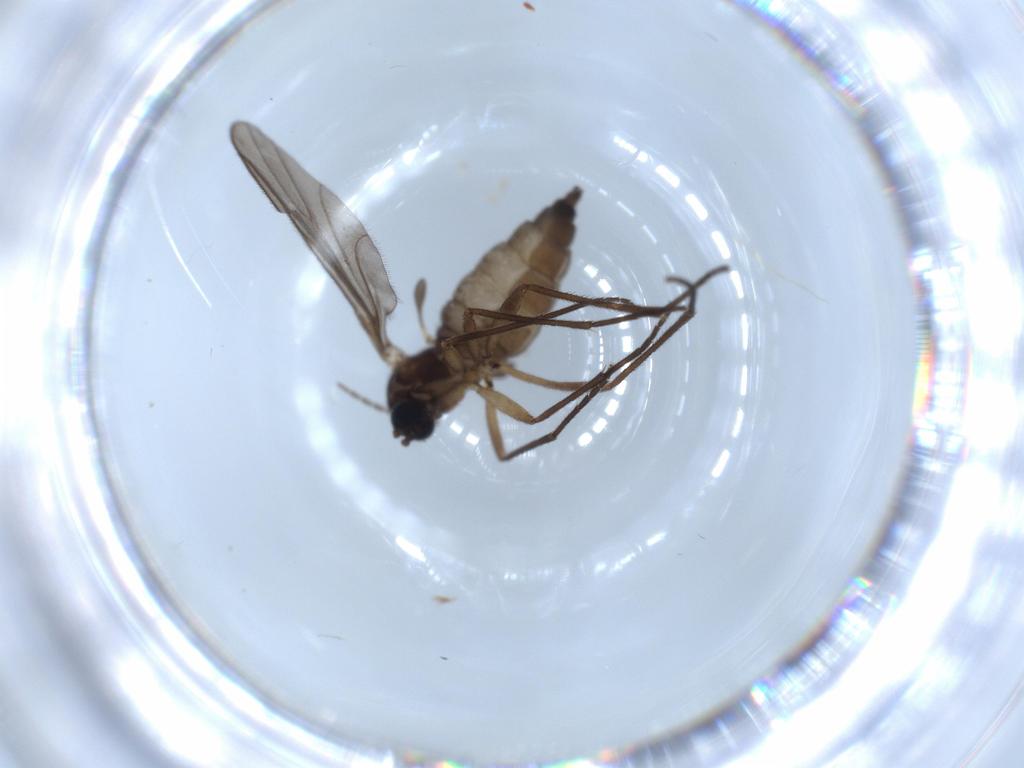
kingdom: Animalia
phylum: Arthropoda
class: Insecta
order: Diptera
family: Sciaridae
